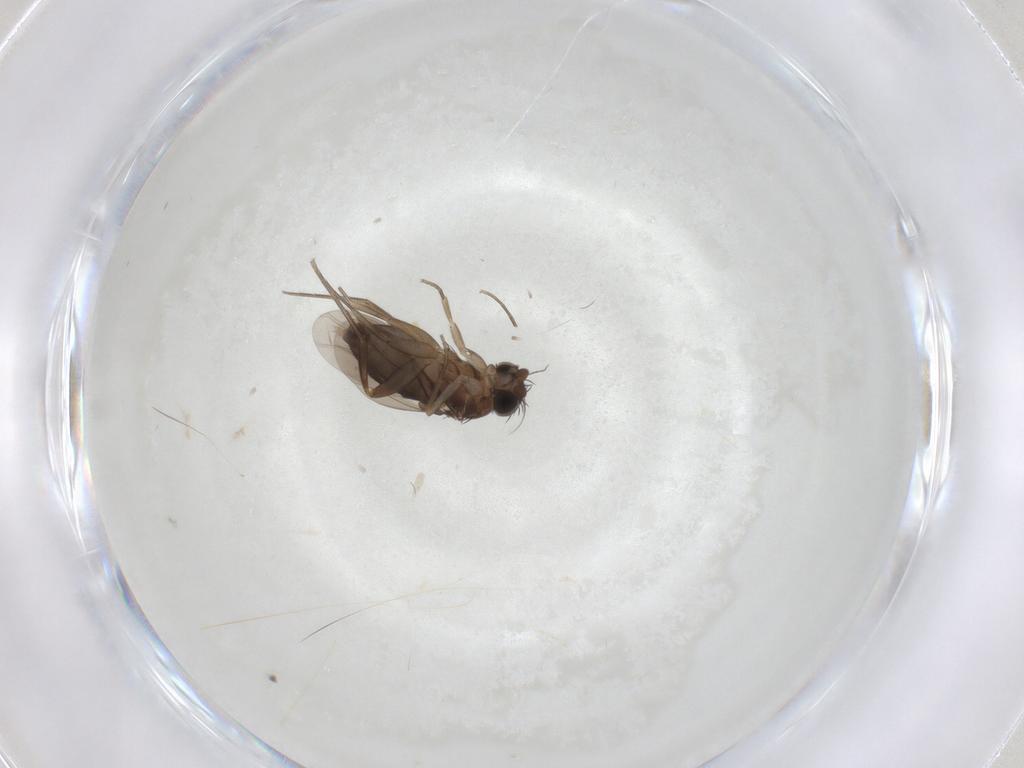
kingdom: Animalia
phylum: Arthropoda
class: Insecta
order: Diptera
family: Phoridae
